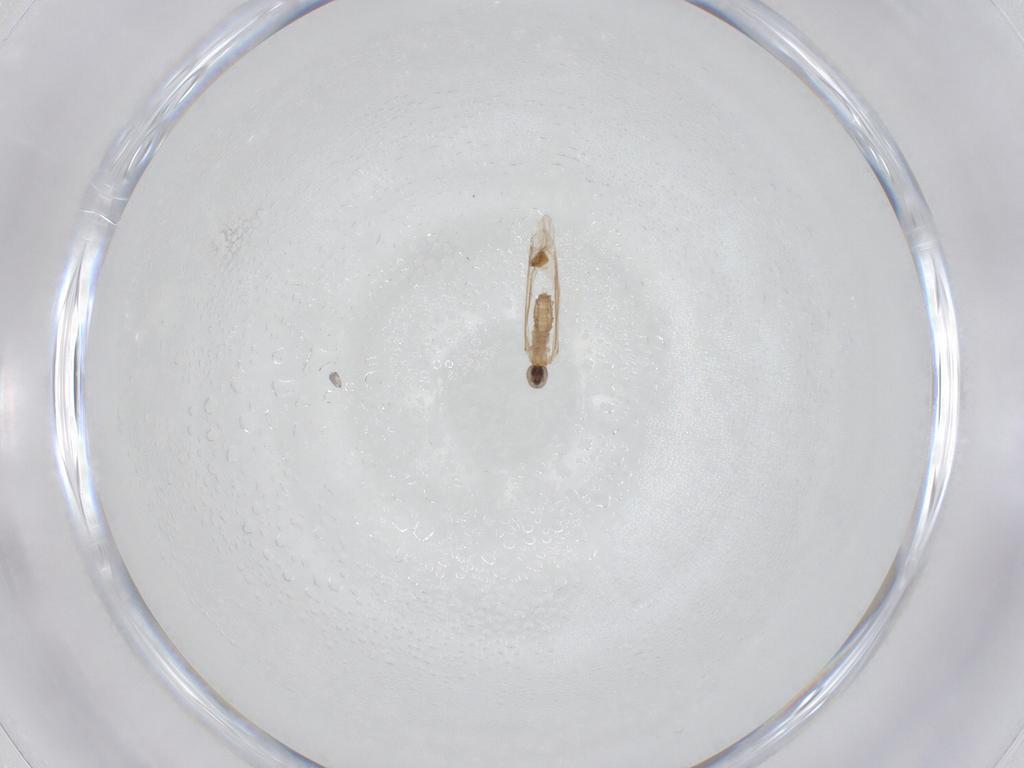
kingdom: Animalia
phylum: Arthropoda
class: Insecta
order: Diptera
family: Cecidomyiidae
